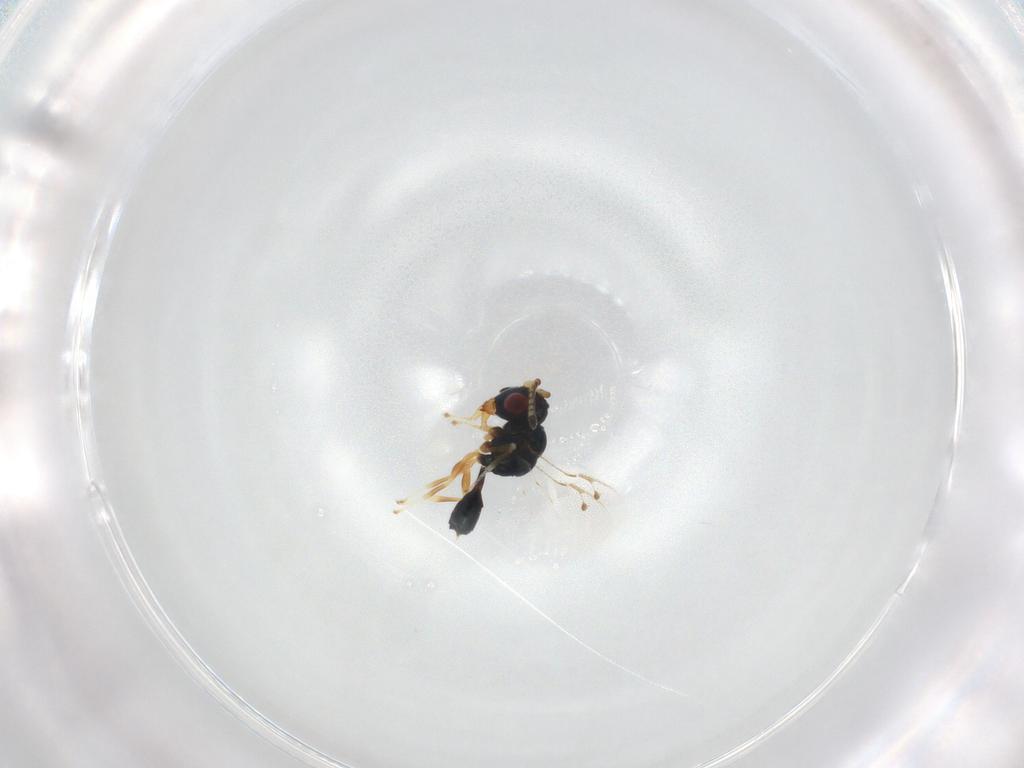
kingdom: Animalia
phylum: Arthropoda
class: Insecta
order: Hymenoptera
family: Pteromalidae
